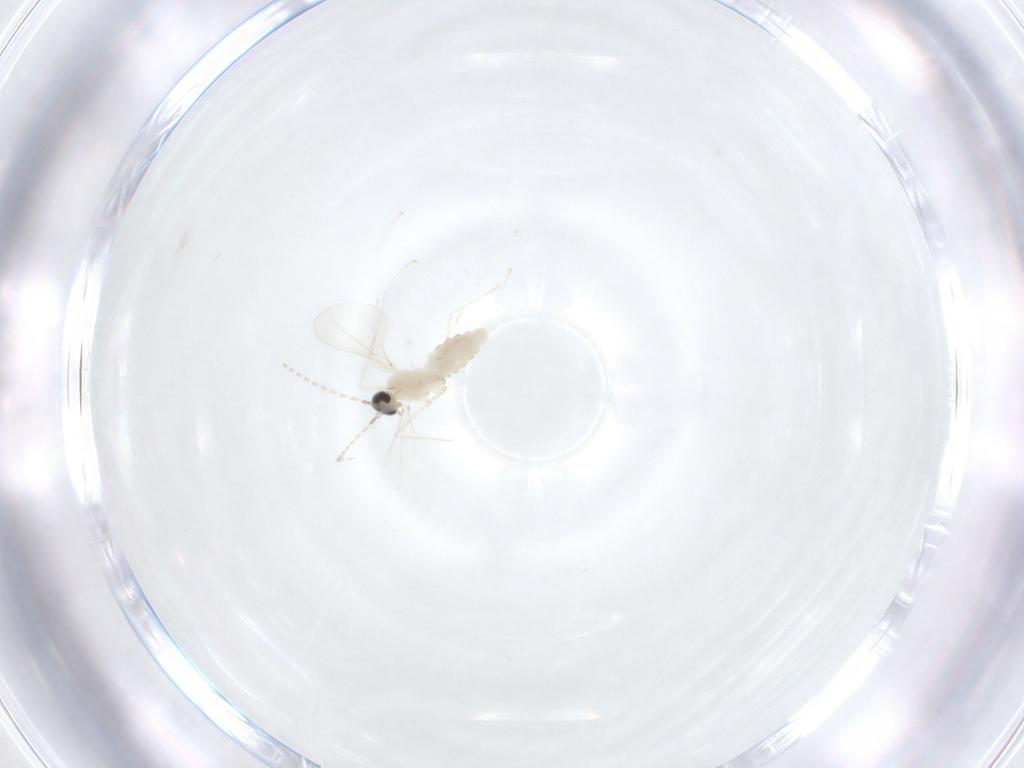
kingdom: Animalia
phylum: Arthropoda
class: Insecta
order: Diptera
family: Cecidomyiidae
